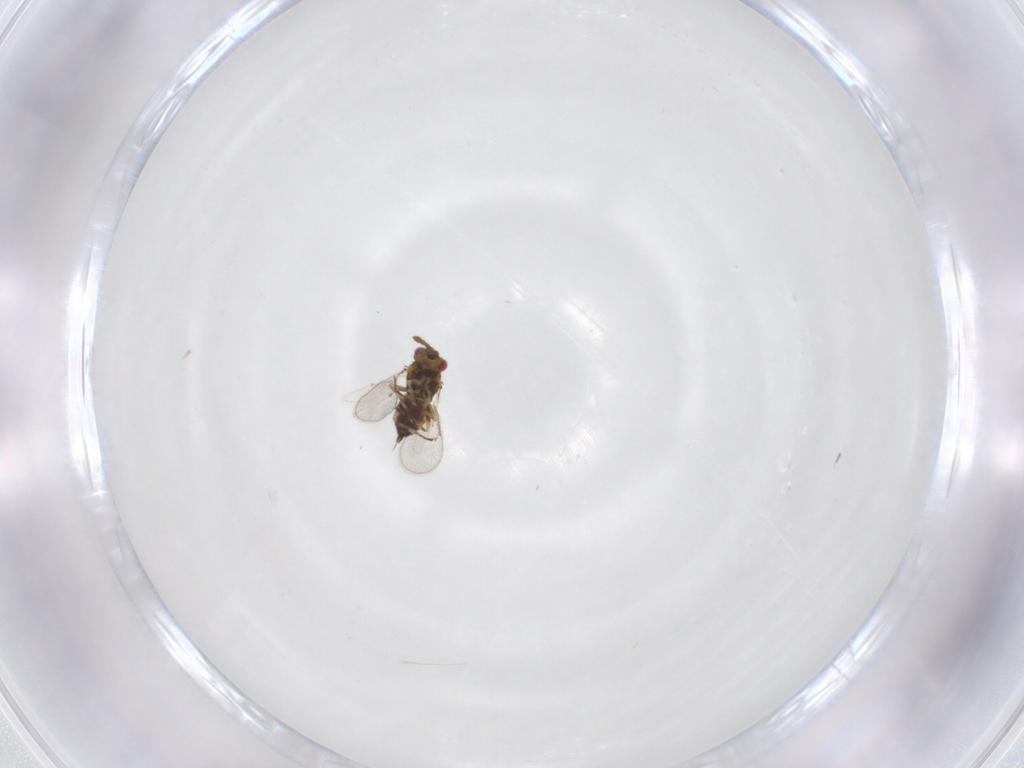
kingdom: Animalia
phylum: Arthropoda
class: Insecta
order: Hymenoptera
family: Eulophidae
